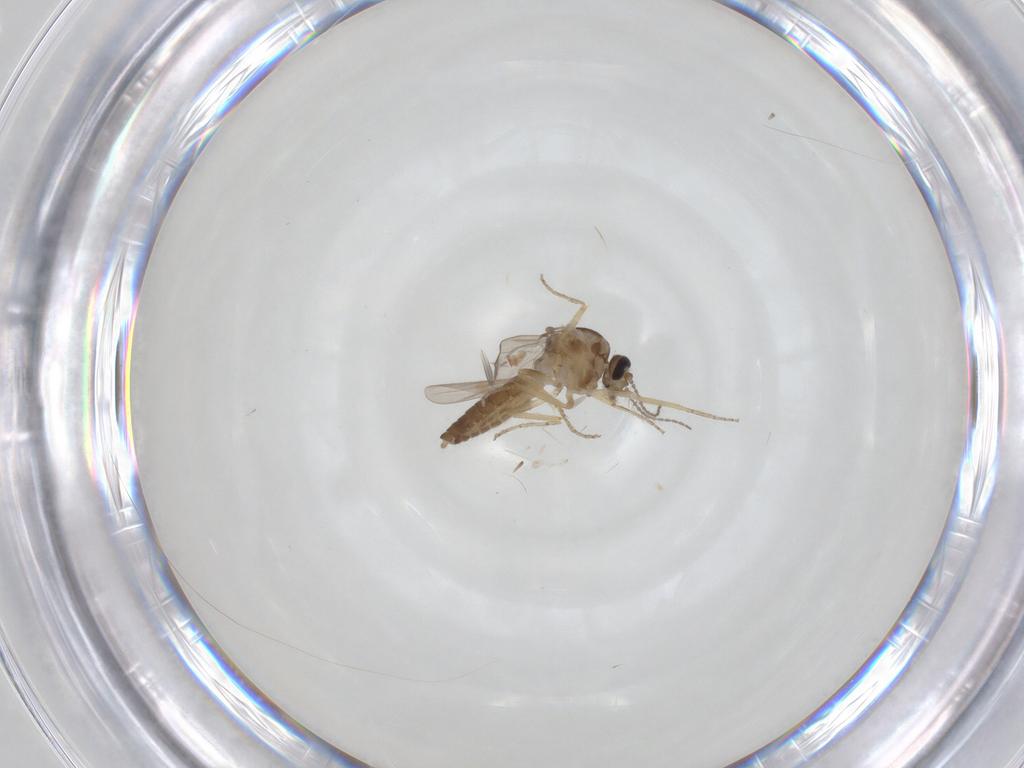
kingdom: Animalia
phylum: Arthropoda
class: Insecta
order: Diptera
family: Ceratopogonidae
